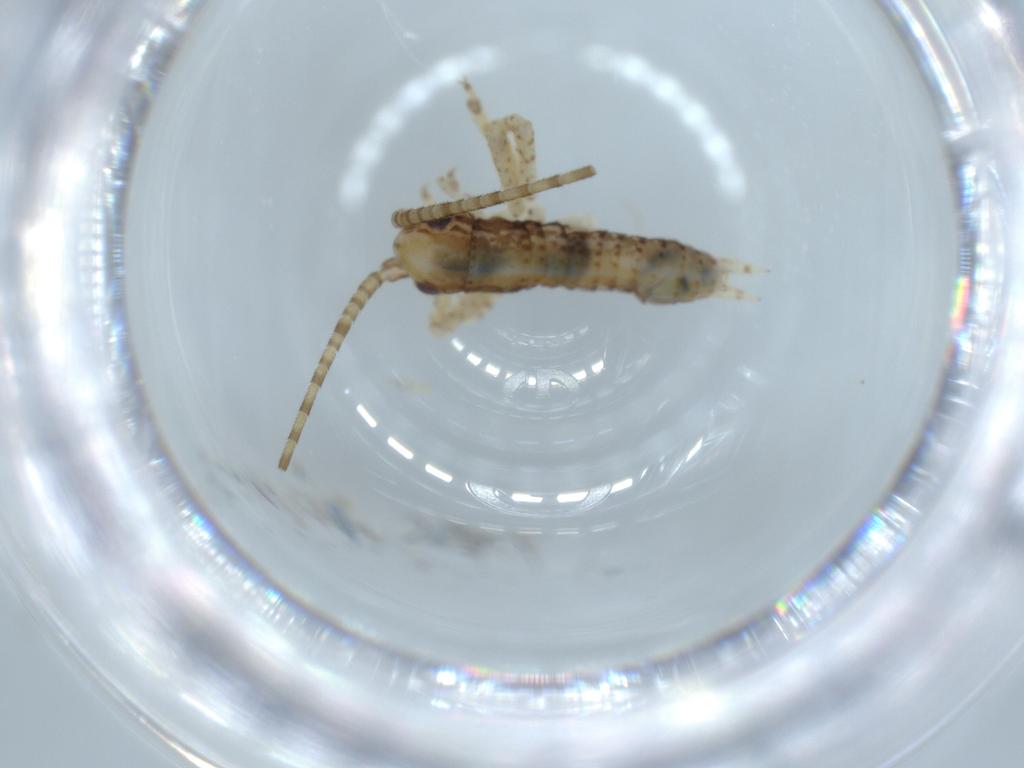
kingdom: Animalia
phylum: Arthropoda
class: Insecta
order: Orthoptera
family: Gryllidae
